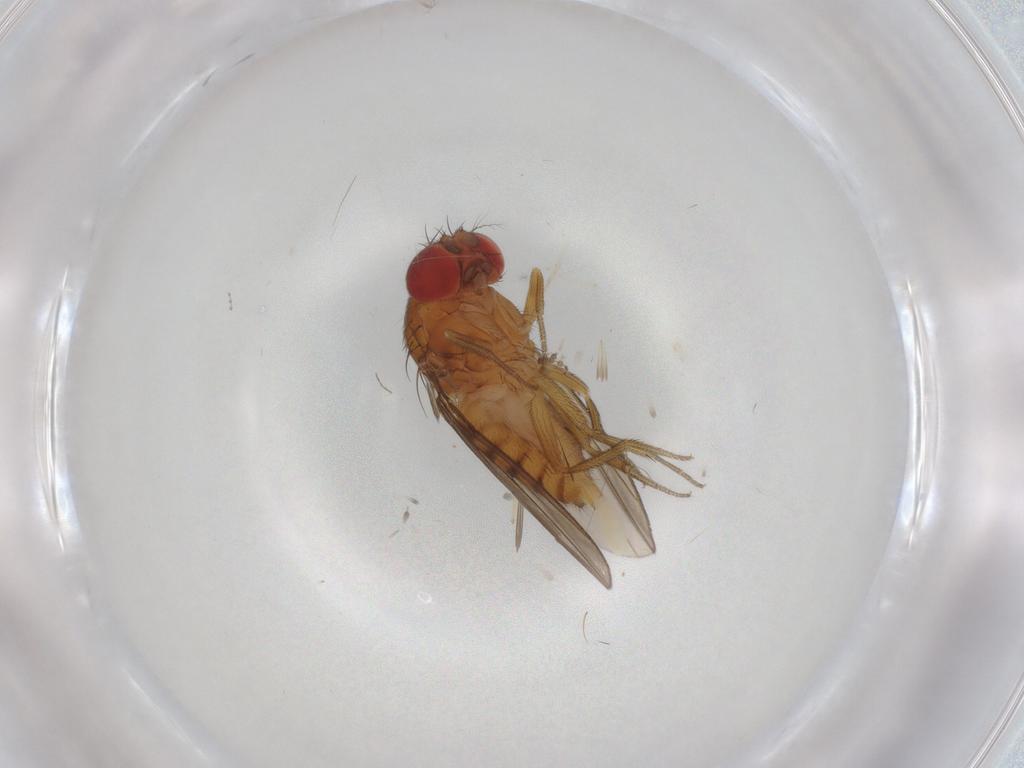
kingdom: Animalia
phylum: Arthropoda
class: Insecta
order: Diptera
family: Drosophilidae
